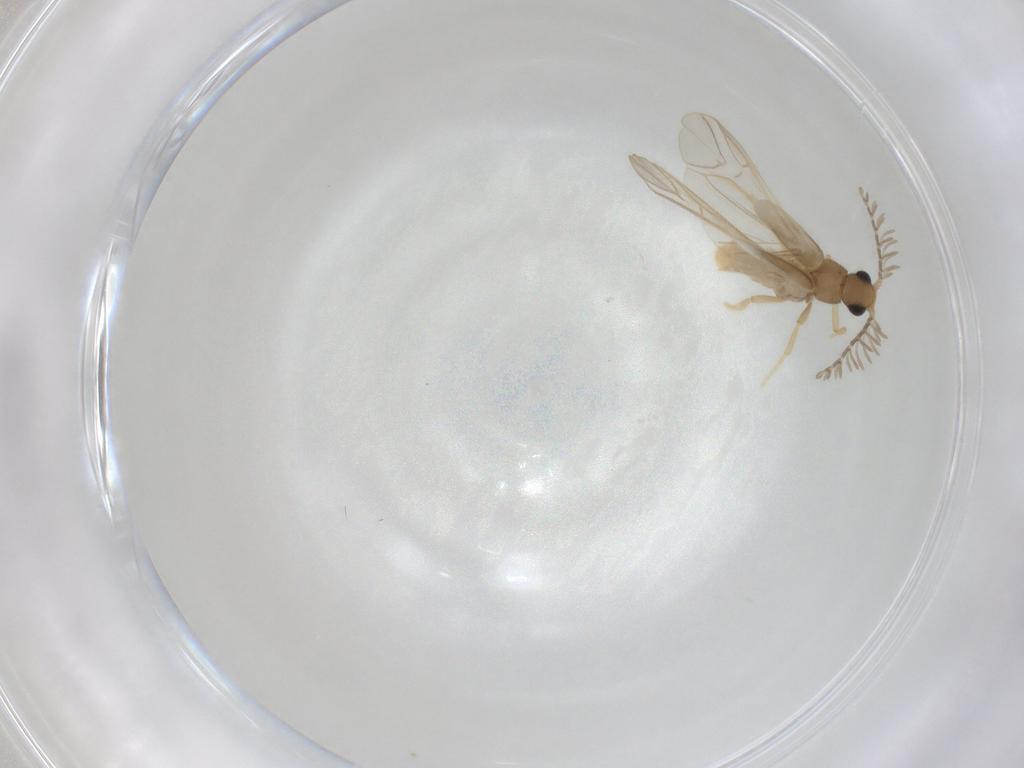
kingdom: Animalia
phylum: Arthropoda
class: Insecta
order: Coleoptera
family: Phengodidae
